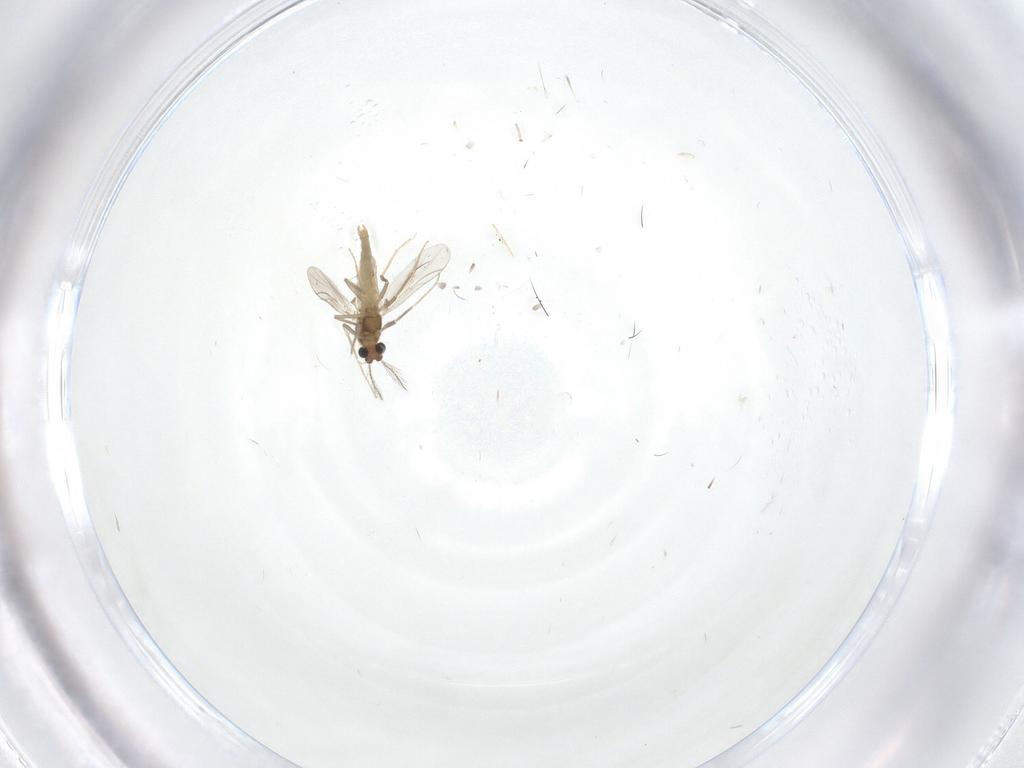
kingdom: Animalia
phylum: Arthropoda
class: Insecta
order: Diptera
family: Cecidomyiidae
